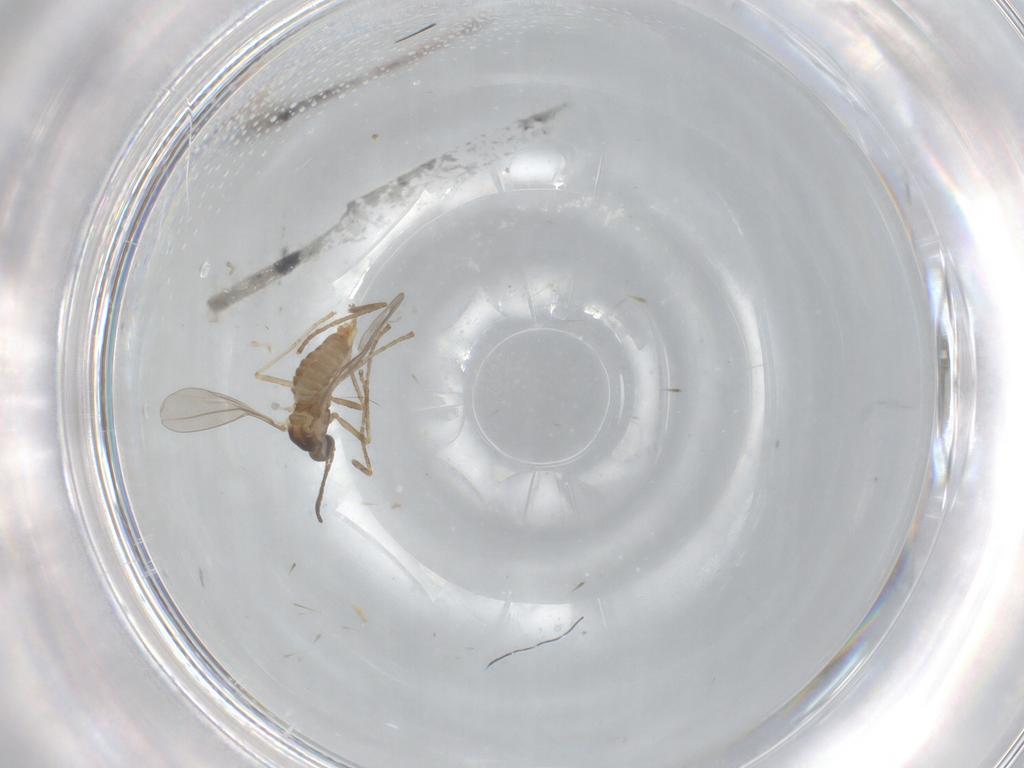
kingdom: Animalia
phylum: Arthropoda
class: Insecta
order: Diptera
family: Cecidomyiidae
